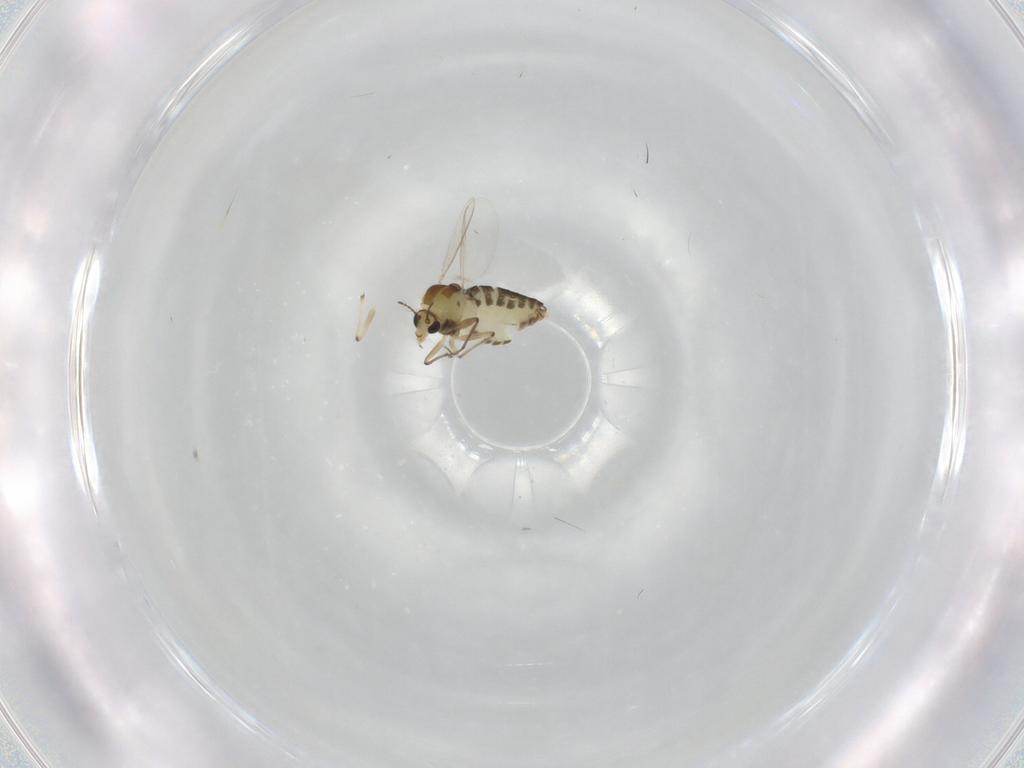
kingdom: Animalia
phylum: Arthropoda
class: Insecta
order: Diptera
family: Chironomidae
